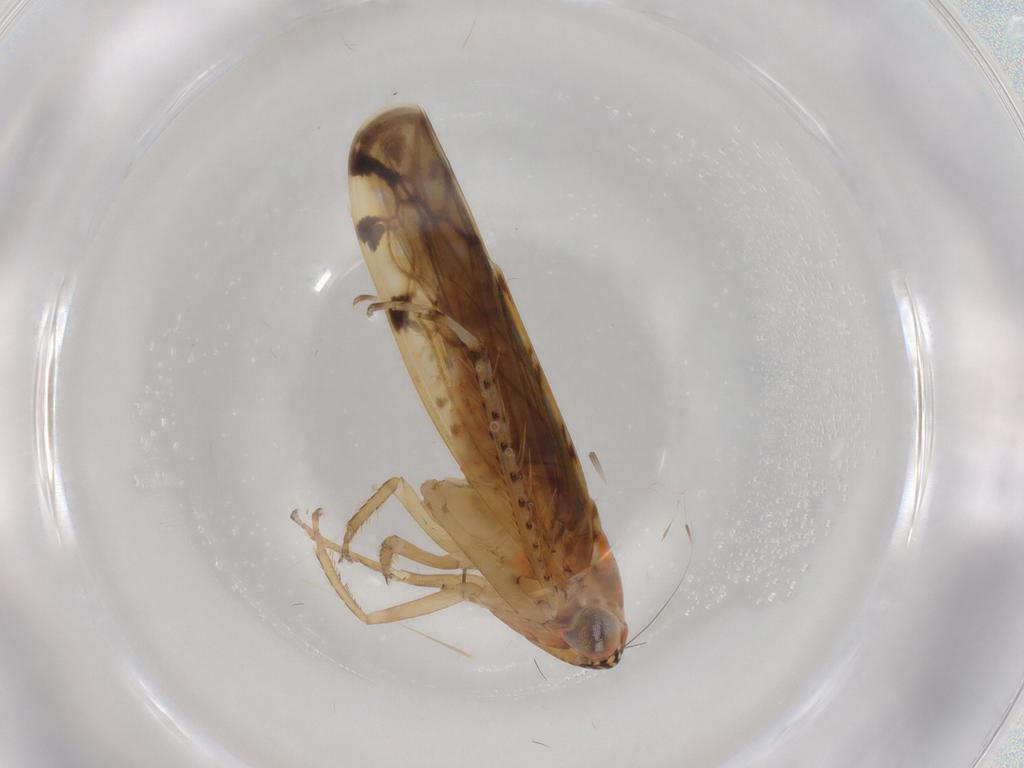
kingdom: Animalia
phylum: Arthropoda
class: Insecta
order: Hemiptera
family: Cicadellidae
